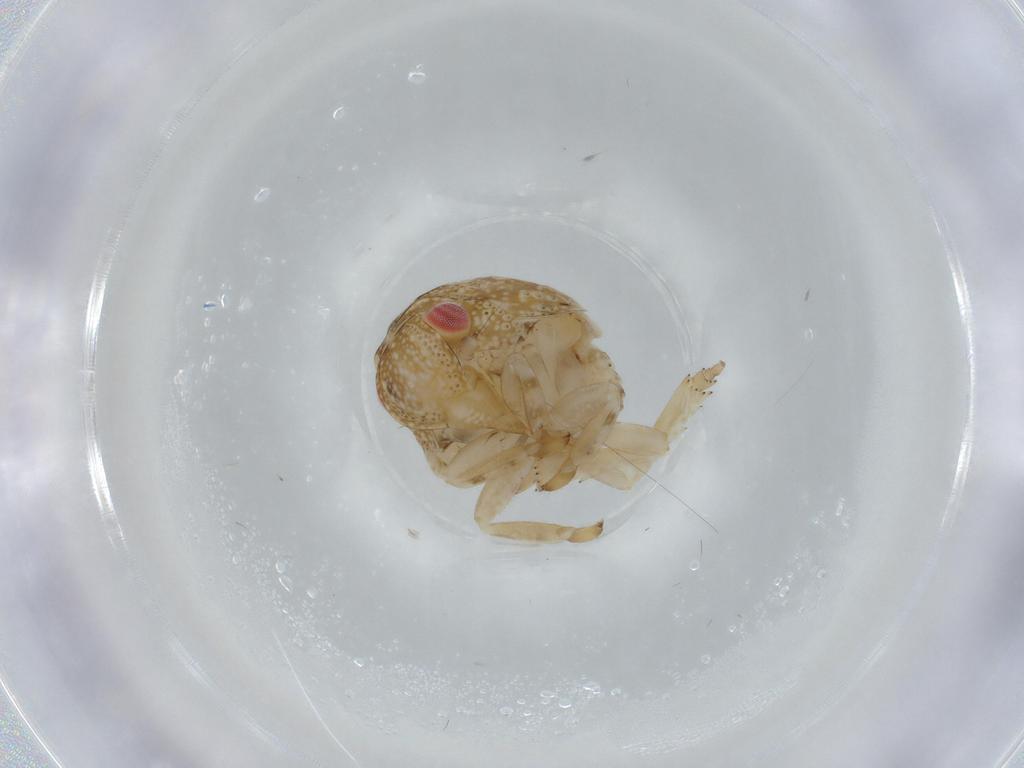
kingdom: Animalia
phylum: Arthropoda
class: Insecta
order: Hemiptera
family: Acanaloniidae
